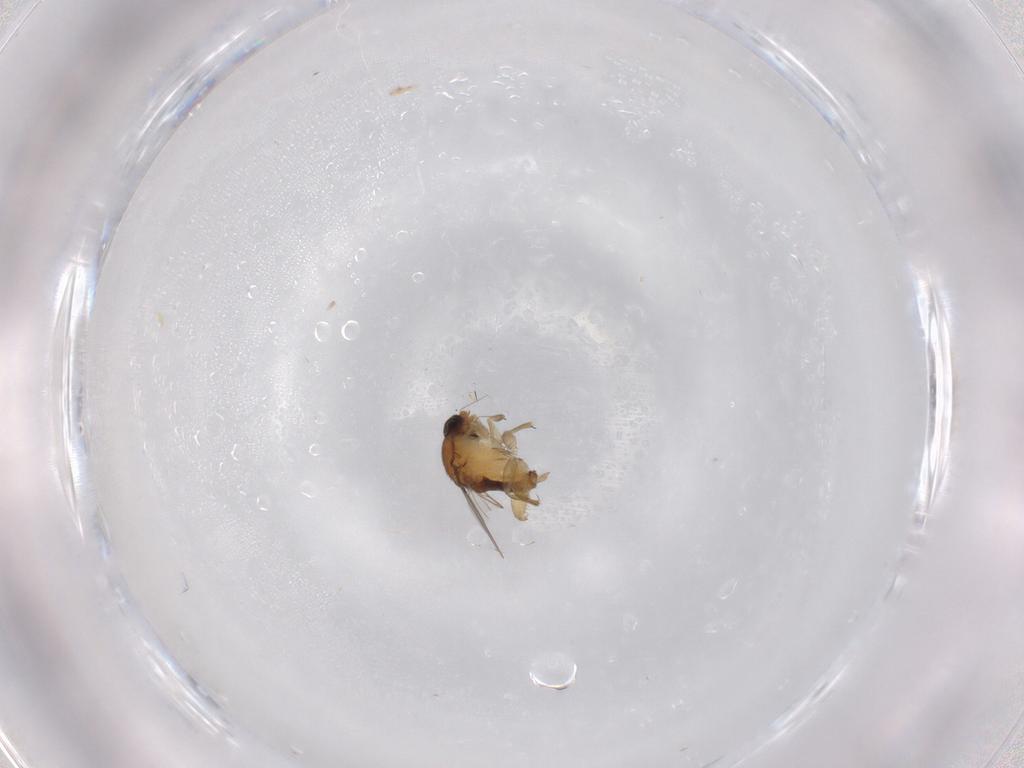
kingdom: Animalia
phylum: Arthropoda
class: Insecta
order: Diptera
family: Phoridae
